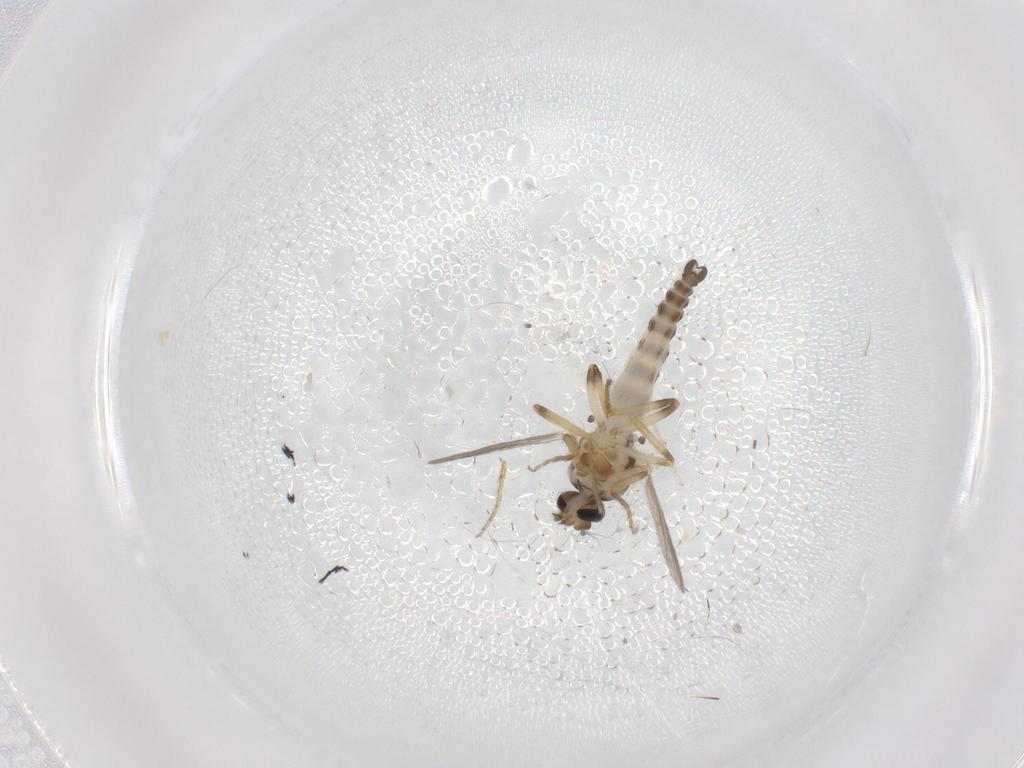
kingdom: Animalia
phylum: Arthropoda
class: Insecta
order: Diptera
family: Ceratopogonidae
